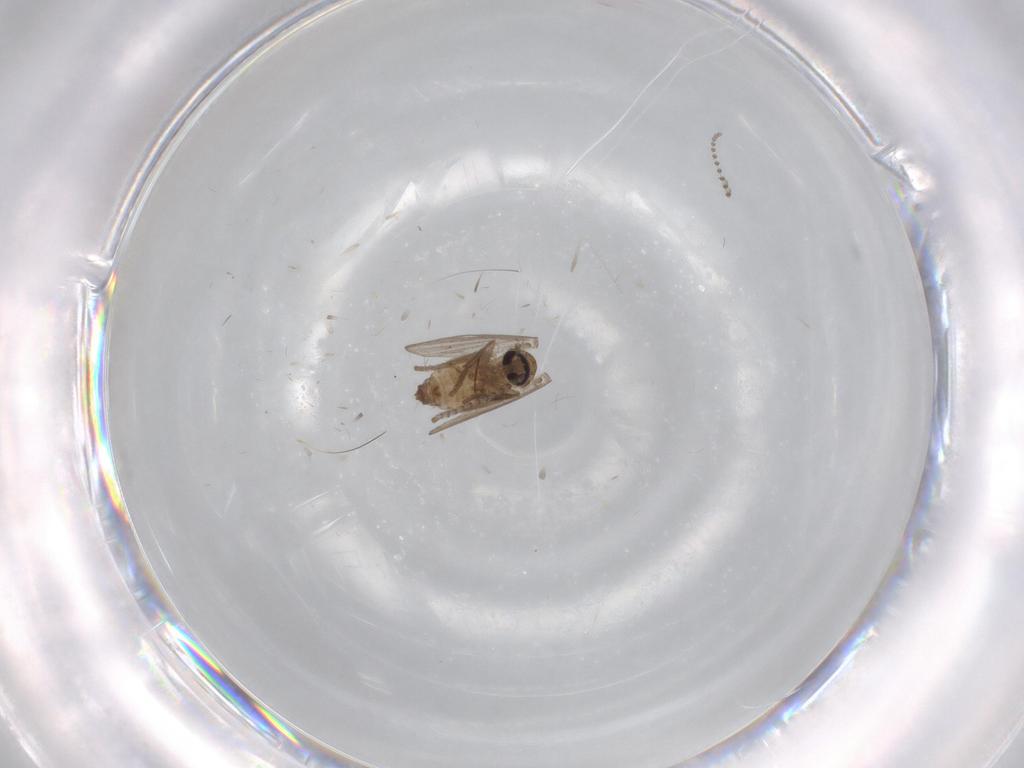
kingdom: Animalia
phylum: Arthropoda
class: Insecta
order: Diptera
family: Psychodidae
